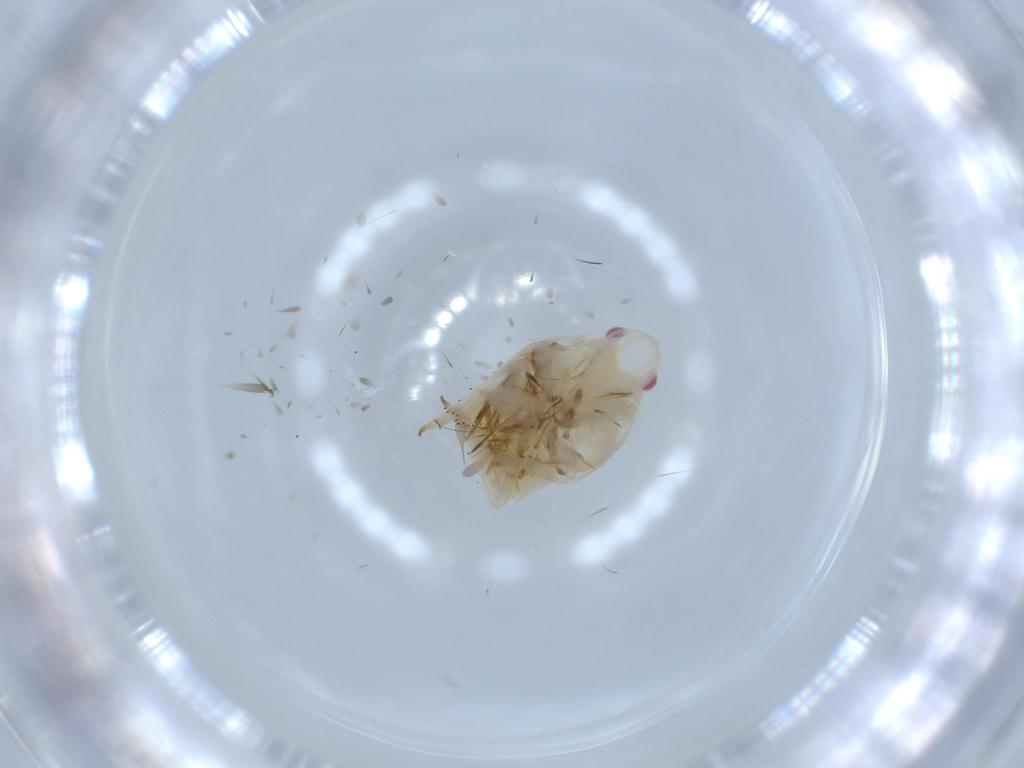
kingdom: Animalia
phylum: Arthropoda
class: Insecta
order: Hemiptera
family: Flatidae
